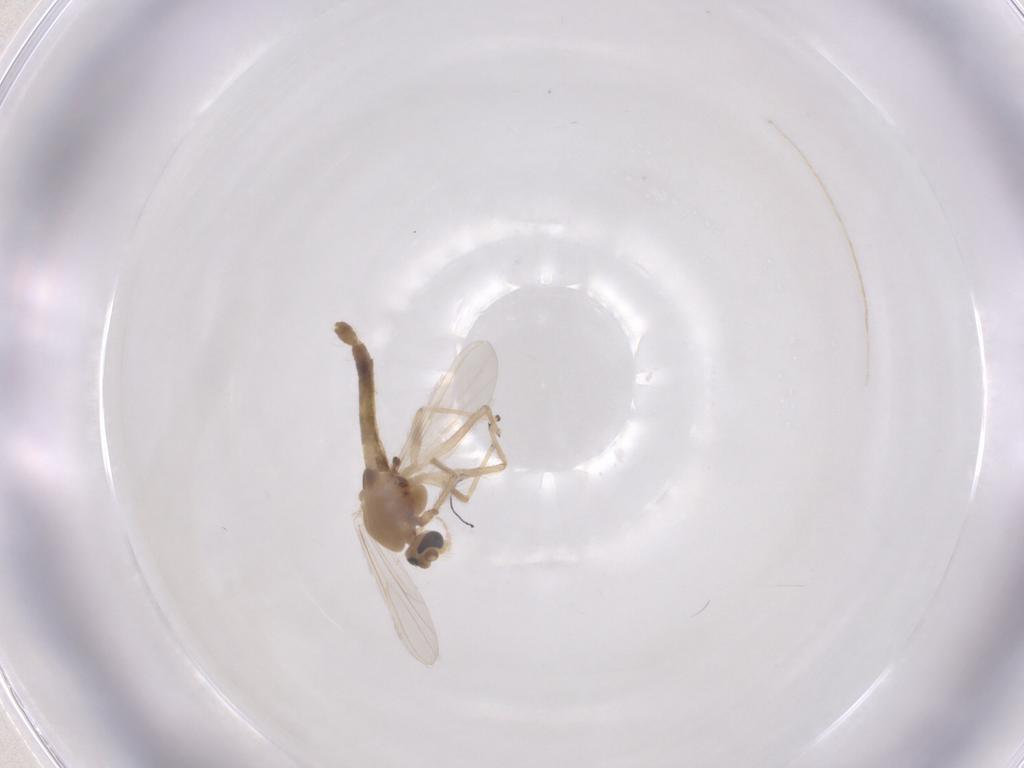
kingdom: Animalia
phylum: Arthropoda
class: Insecta
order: Diptera
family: Chironomidae
